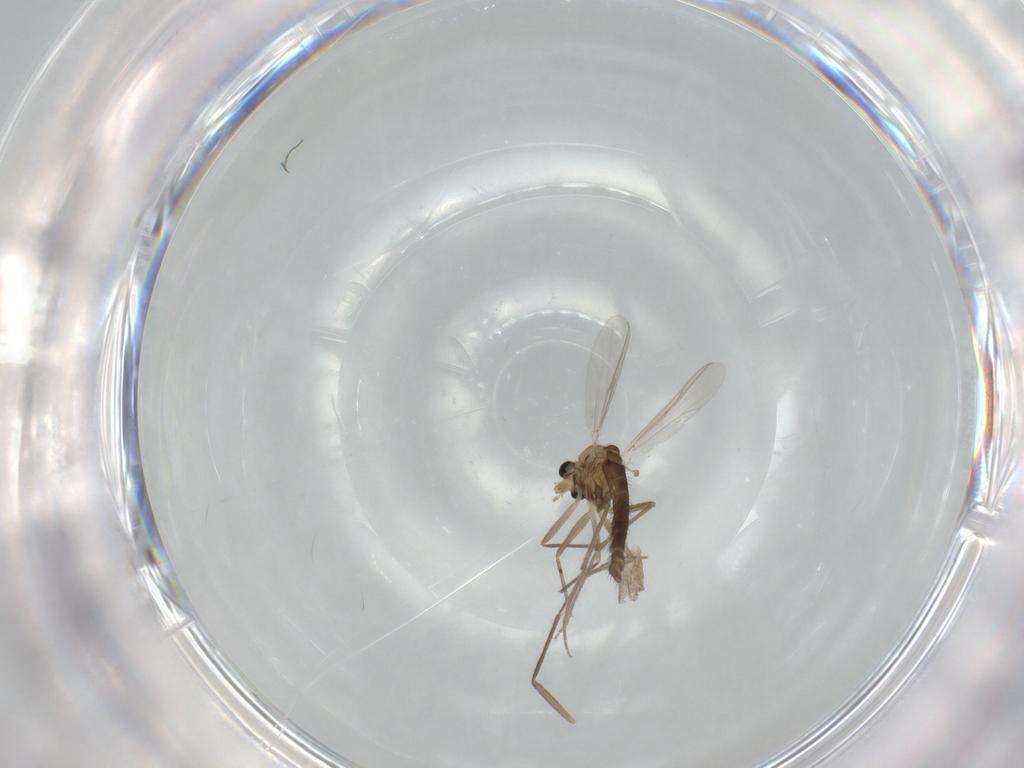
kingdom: Animalia
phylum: Arthropoda
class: Insecta
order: Diptera
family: Chironomidae
